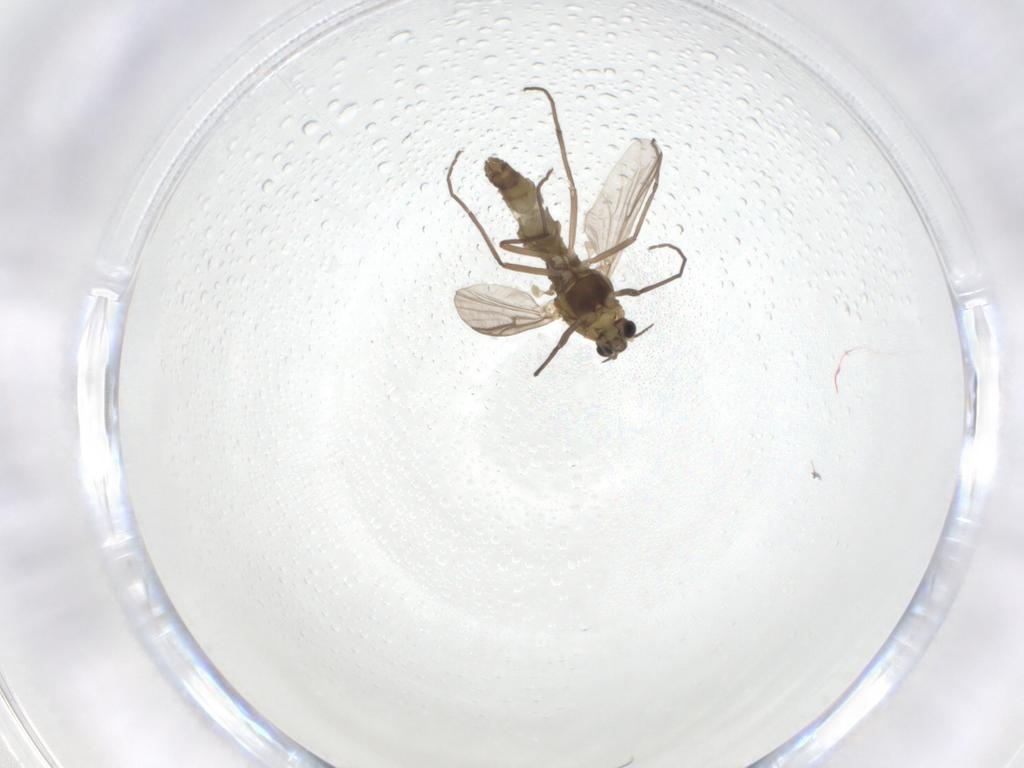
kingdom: Animalia
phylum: Arthropoda
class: Insecta
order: Diptera
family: Chironomidae
